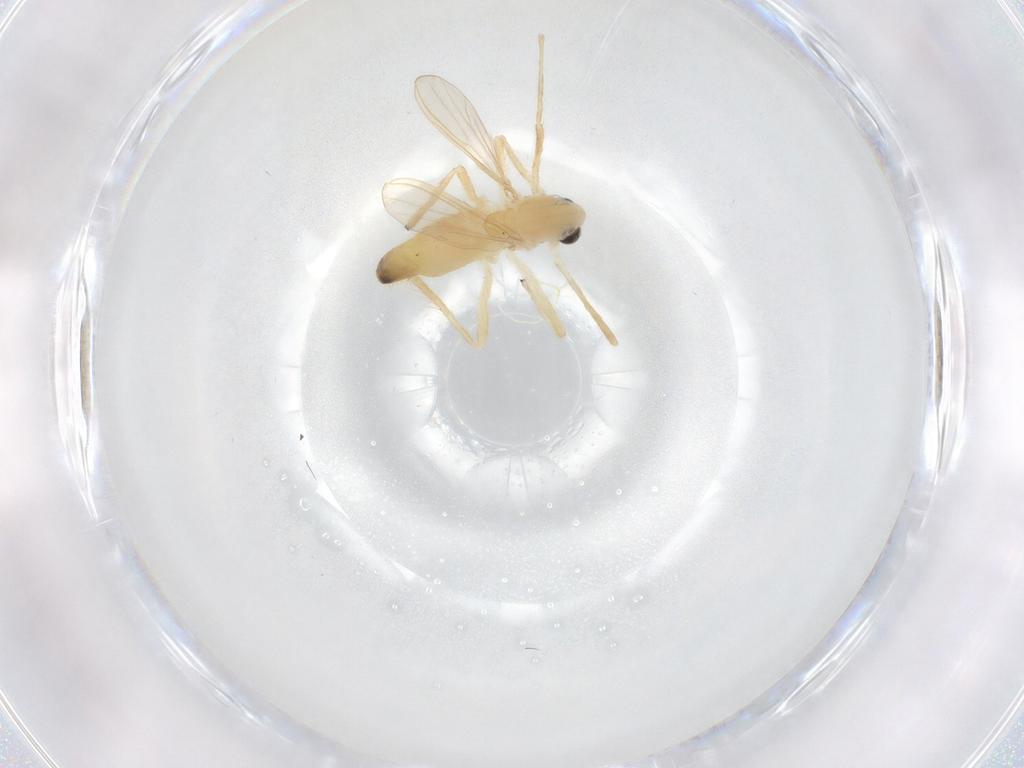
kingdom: Animalia
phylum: Arthropoda
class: Insecta
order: Diptera
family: Chironomidae
